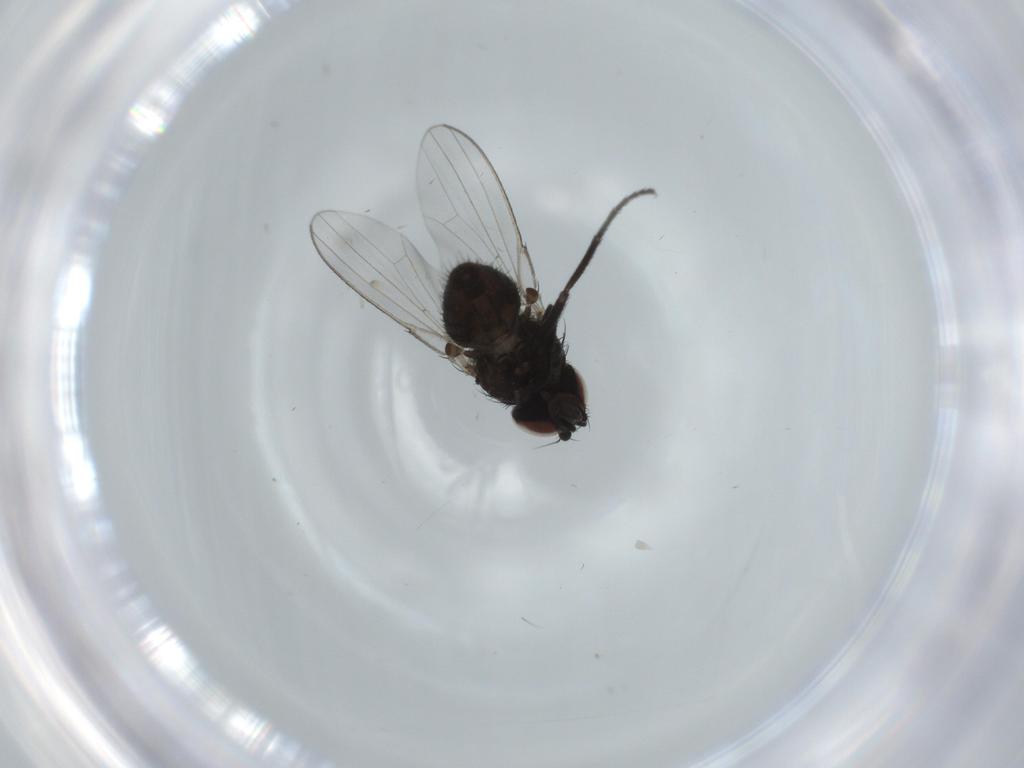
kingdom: Animalia
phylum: Arthropoda
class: Insecta
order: Diptera
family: Milichiidae
